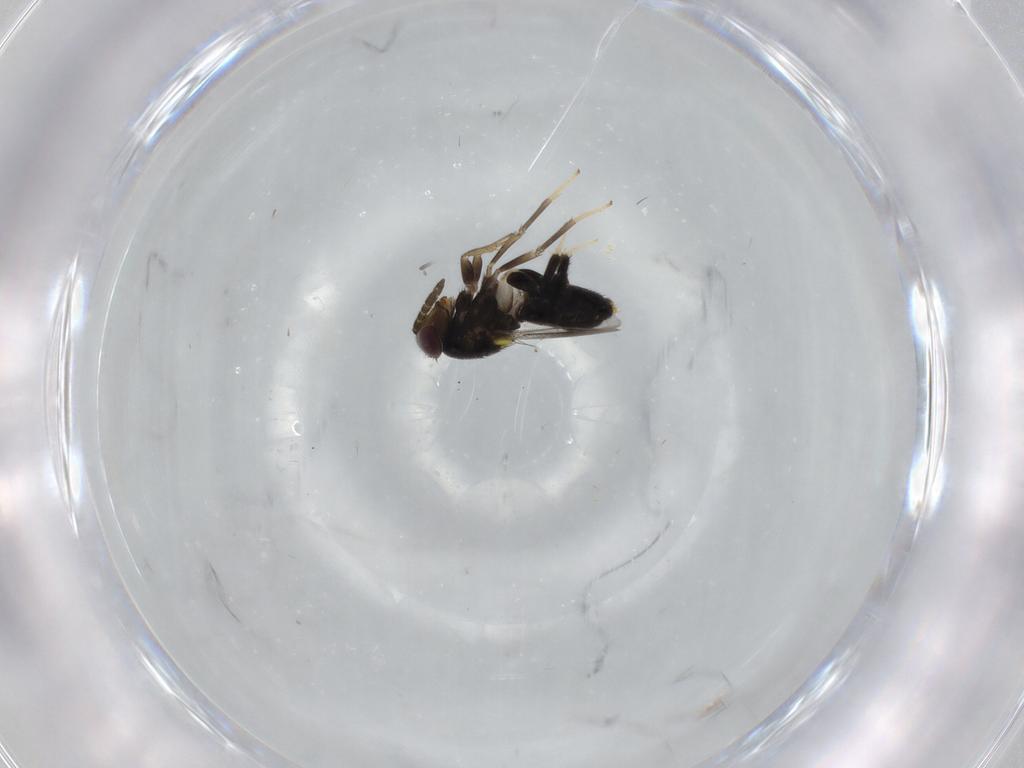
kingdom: Animalia
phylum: Arthropoda
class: Insecta
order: Hymenoptera
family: Aphelinidae
